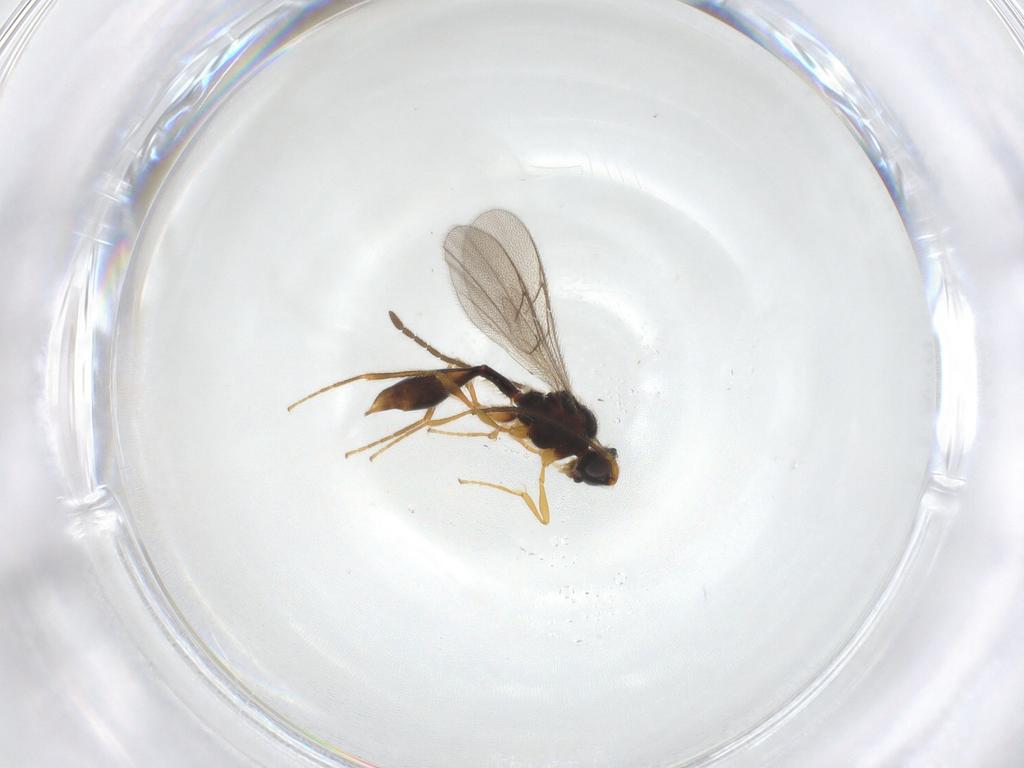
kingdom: Animalia
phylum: Arthropoda
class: Insecta
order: Hymenoptera
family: Diapriidae
